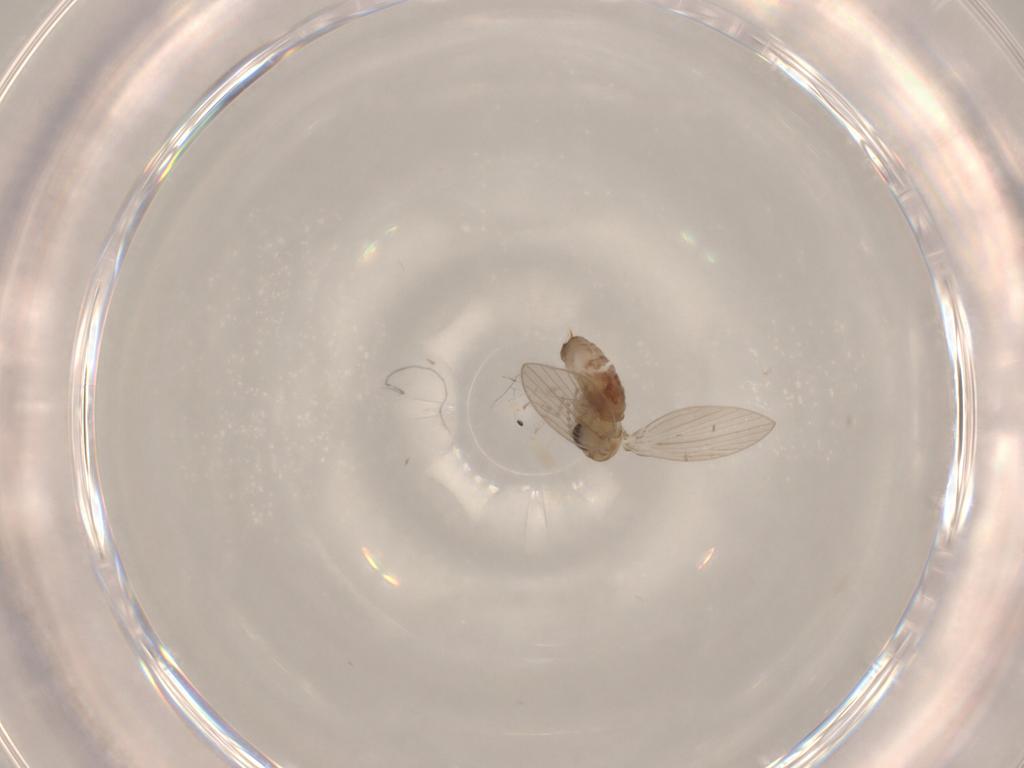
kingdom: Animalia
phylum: Arthropoda
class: Insecta
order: Diptera
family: Psychodidae
